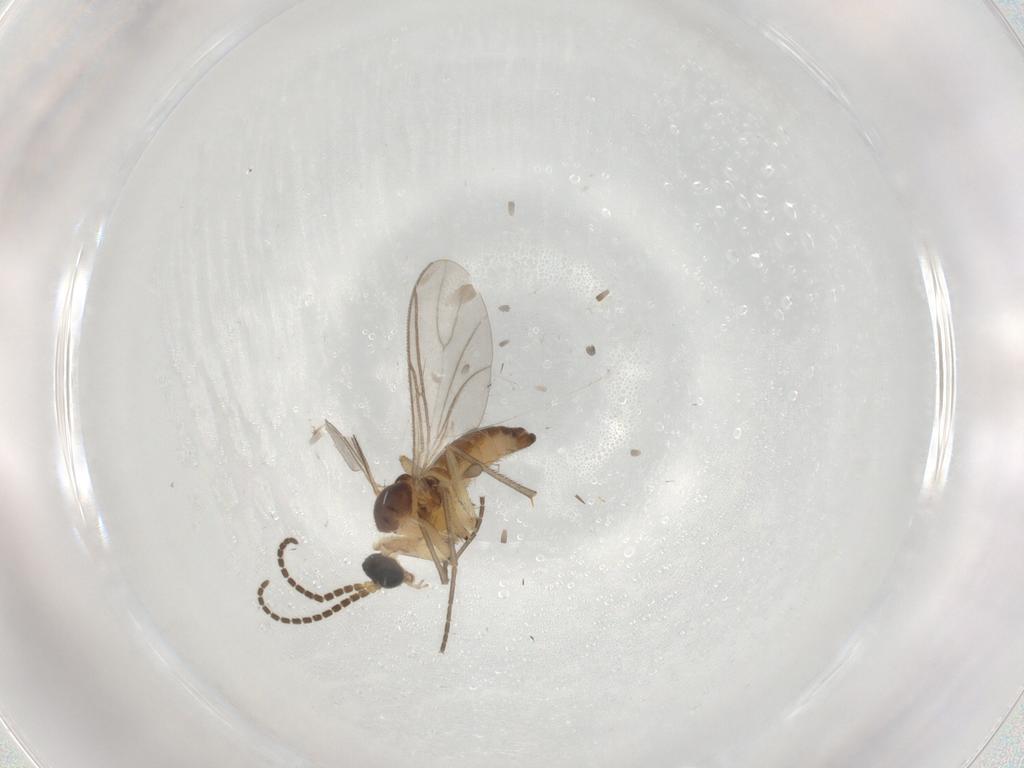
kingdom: Animalia
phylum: Arthropoda
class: Insecta
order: Diptera
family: Sciaridae
